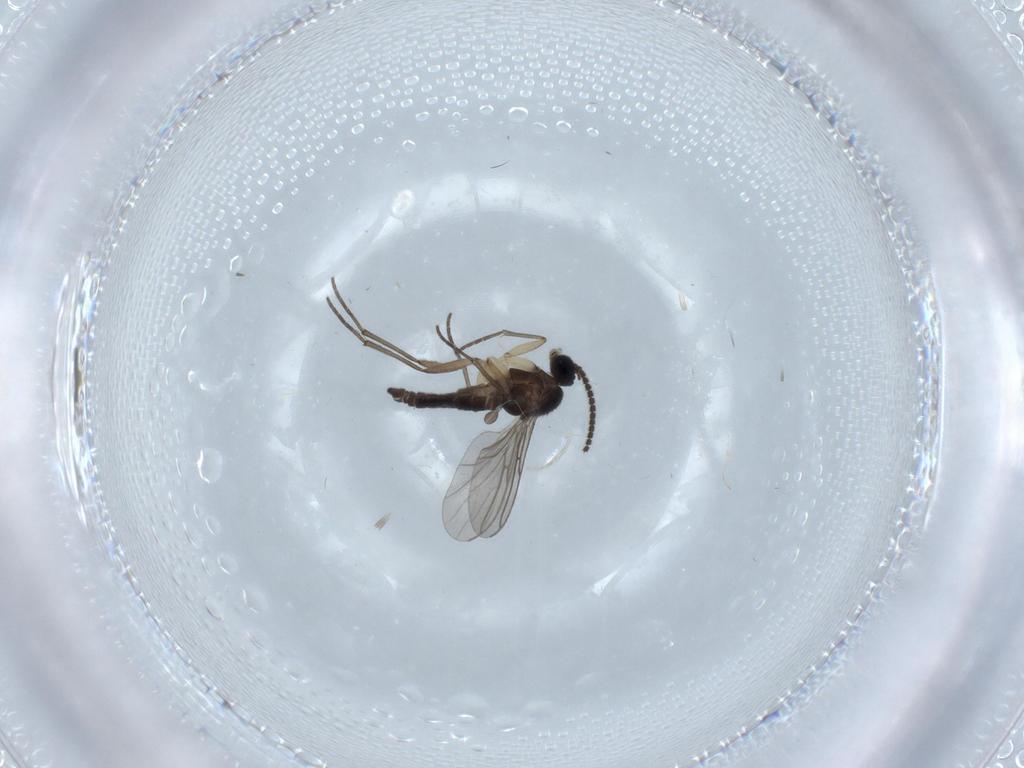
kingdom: Animalia
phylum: Arthropoda
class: Insecta
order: Diptera
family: Sciaridae
